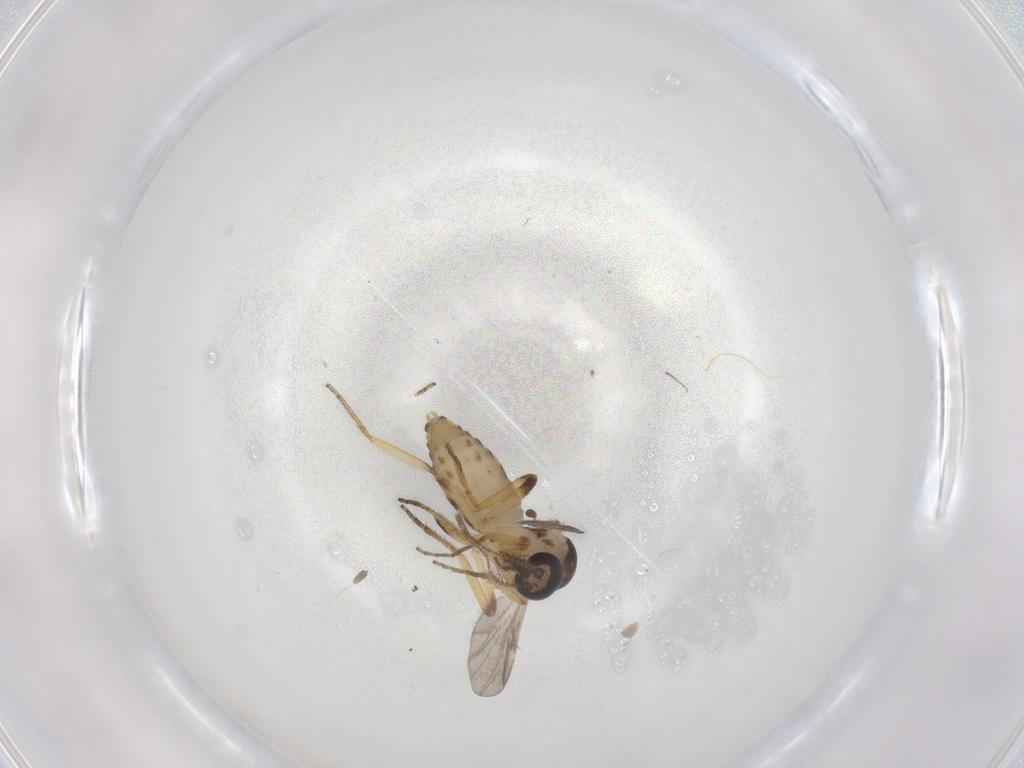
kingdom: Animalia
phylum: Arthropoda
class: Insecta
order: Diptera
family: Ceratopogonidae
